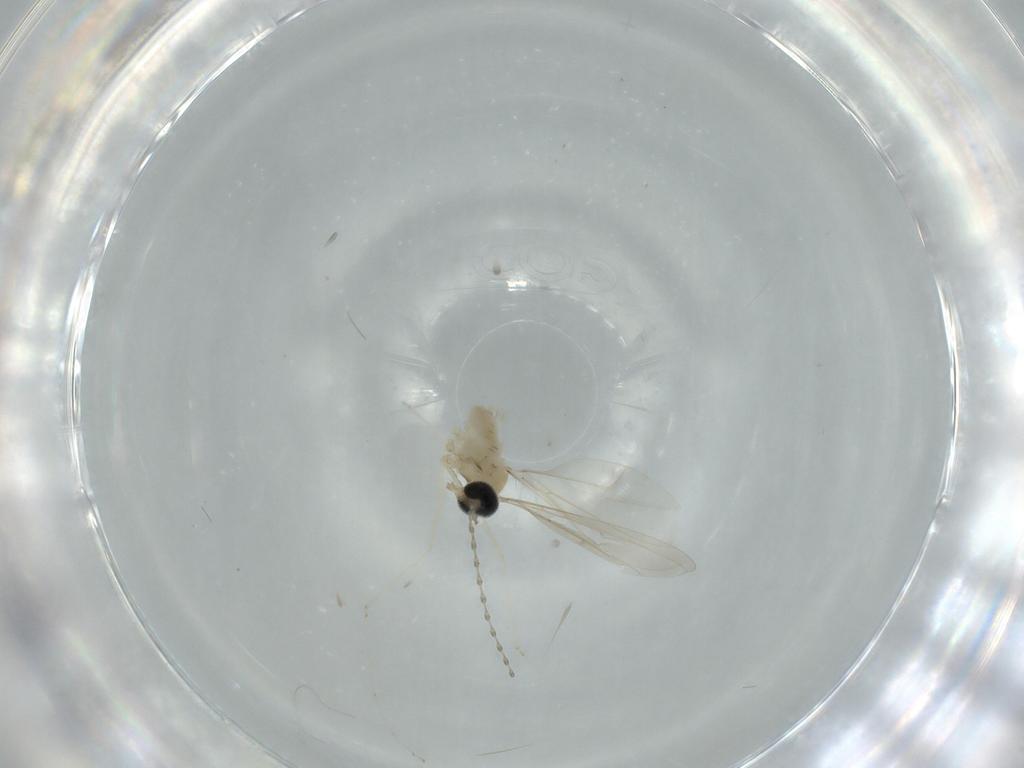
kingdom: Animalia
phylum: Arthropoda
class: Insecta
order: Diptera
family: Cecidomyiidae
